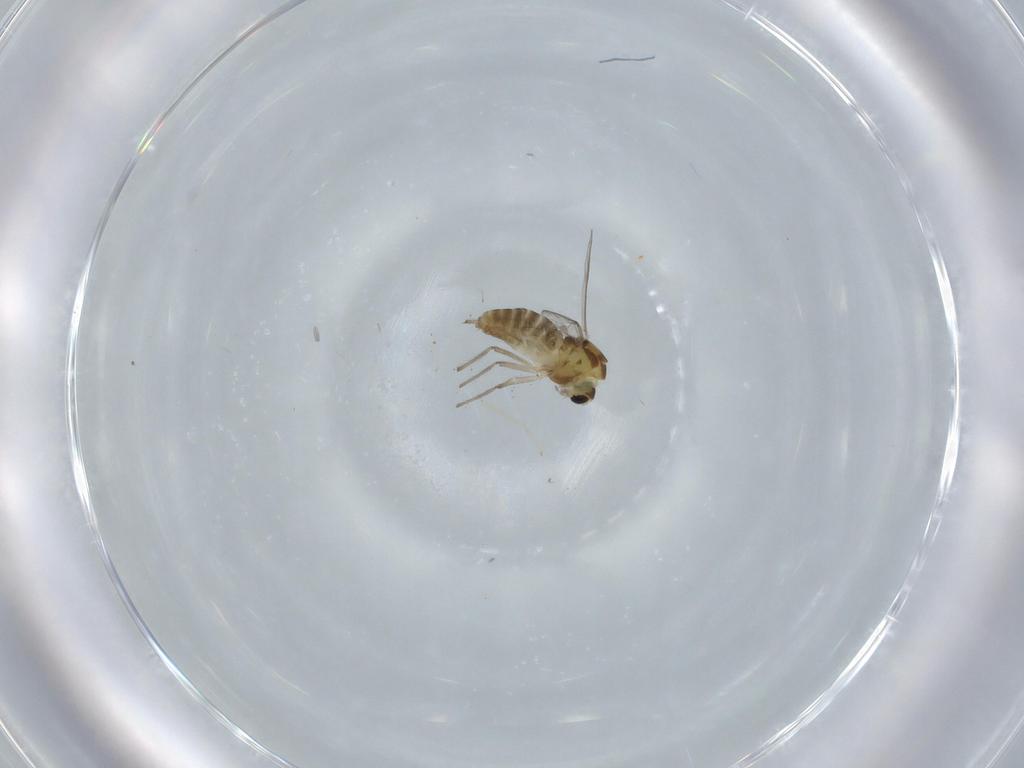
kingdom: Animalia
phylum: Arthropoda
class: Insecta
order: Diptera
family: Chironomidae
